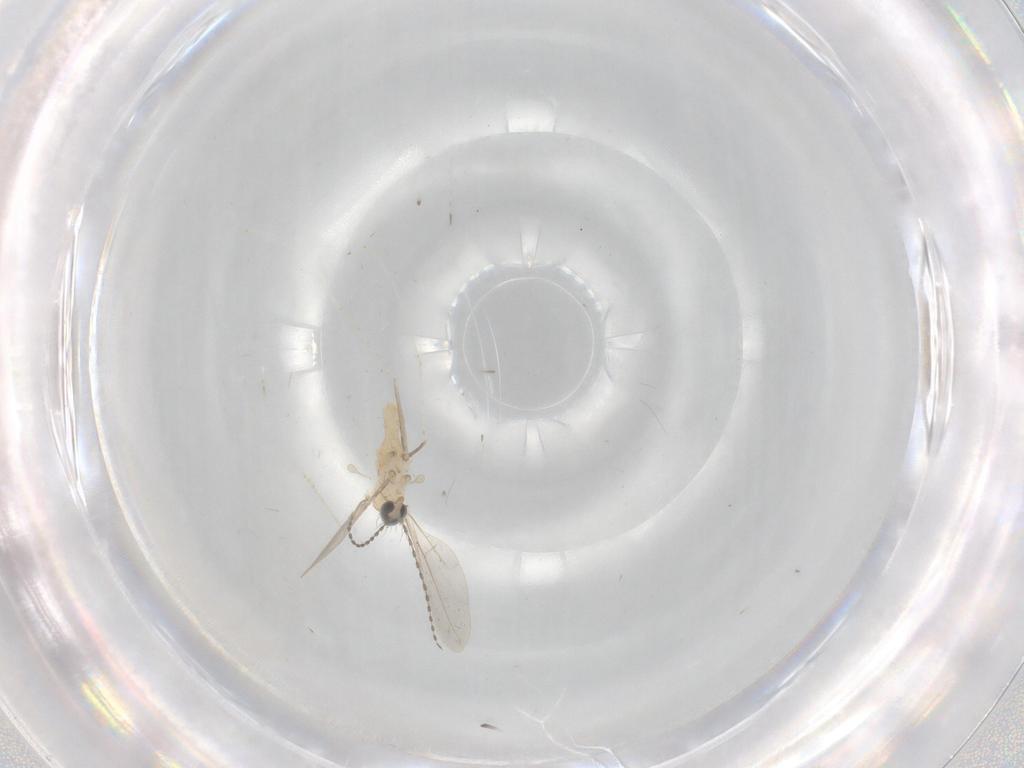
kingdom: Animalia
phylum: Arthropoda
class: Insecta
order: Diptera
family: Cecidomyiidae
